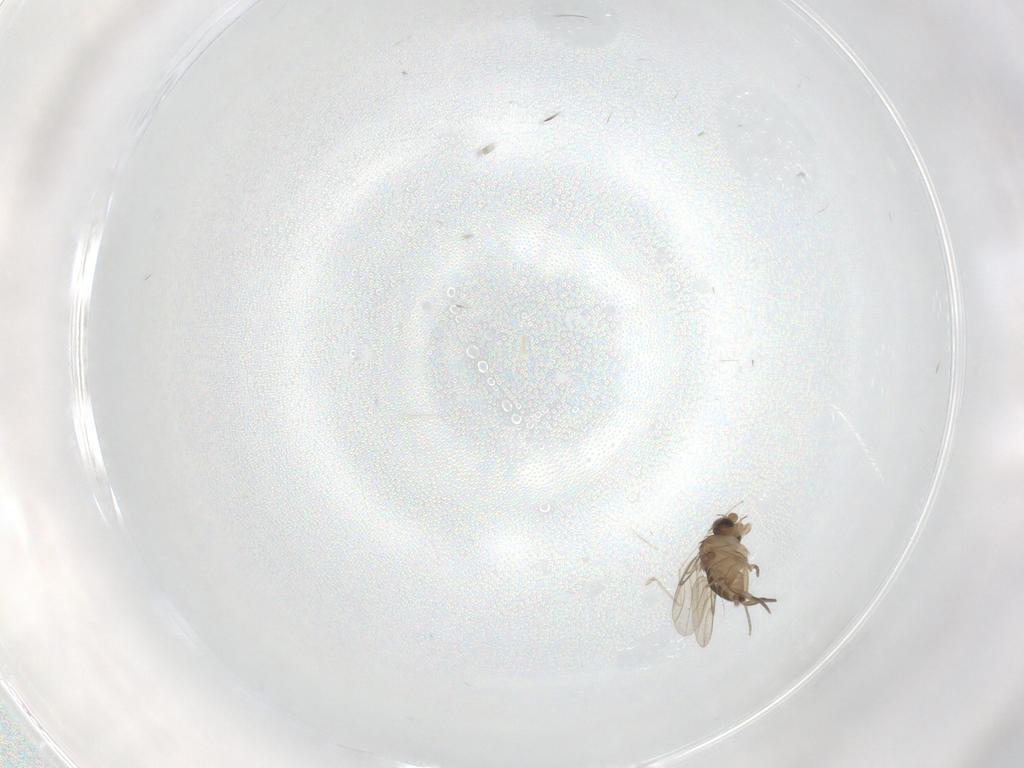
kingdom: Animalia
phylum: Arthropoda
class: Insecta
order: Diptera
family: Phoridae
